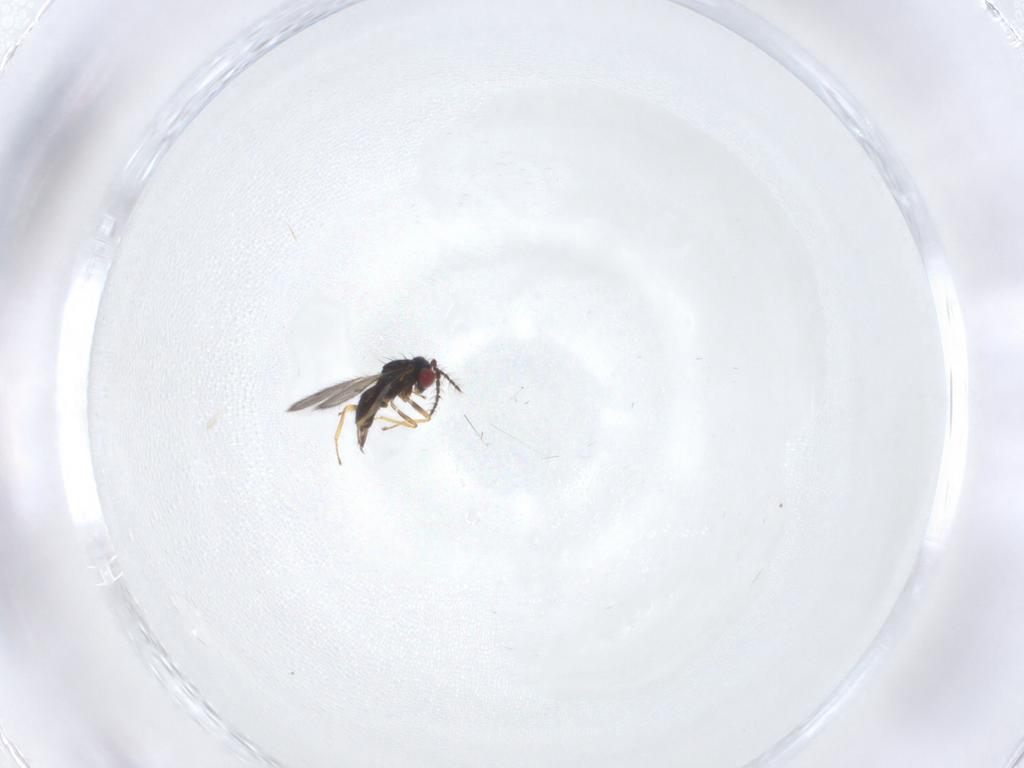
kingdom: Animalia
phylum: Arthropoda
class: Insecta
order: Hymenoptera
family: Eulophidae
